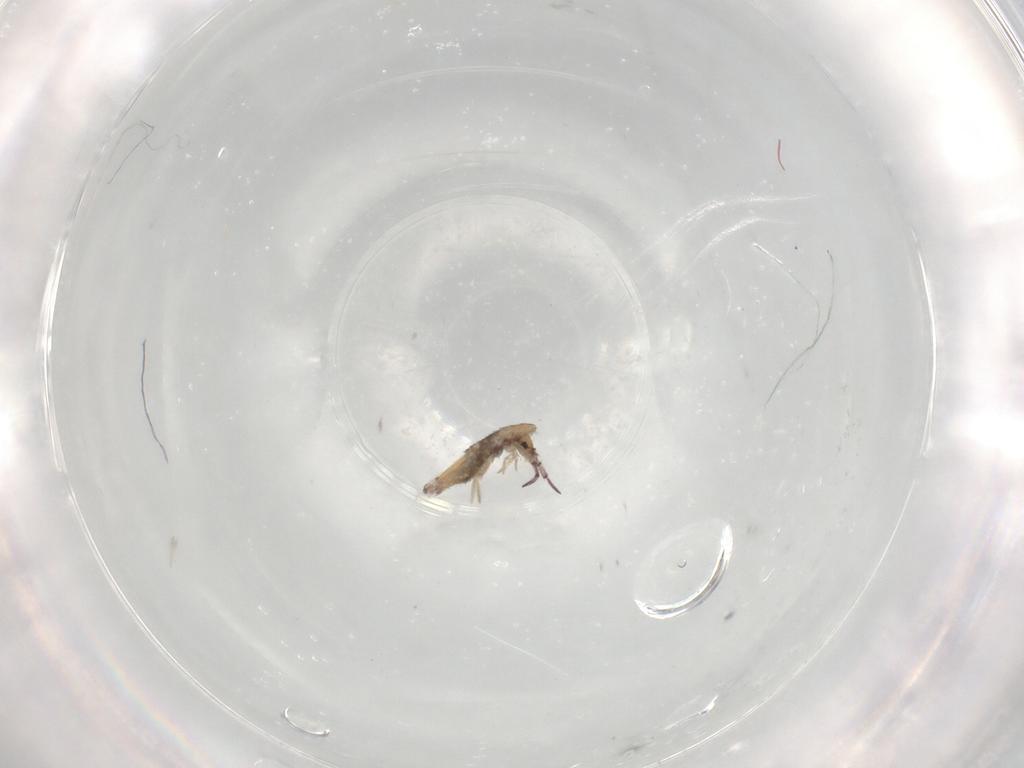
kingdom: Animalia
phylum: Arthropoda
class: Collembola
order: Entomobryomorpha
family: Entomobryidae
